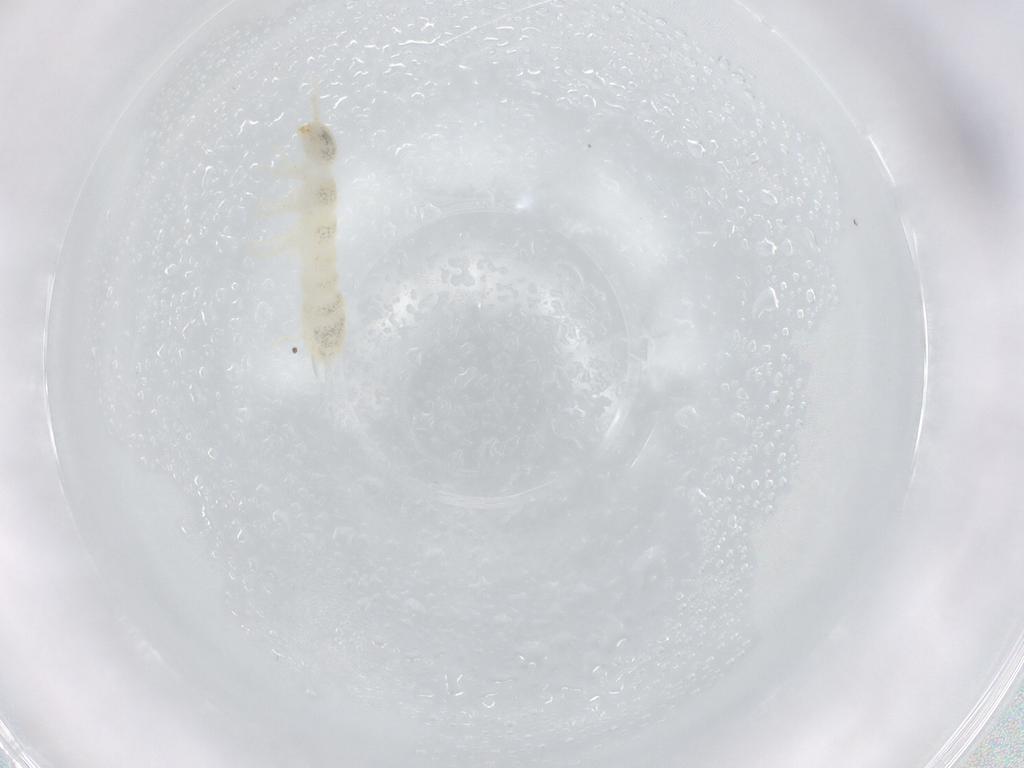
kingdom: Animalia
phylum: Arthropoda
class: Collembola
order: Entomobryomorpha
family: Isotomidae
